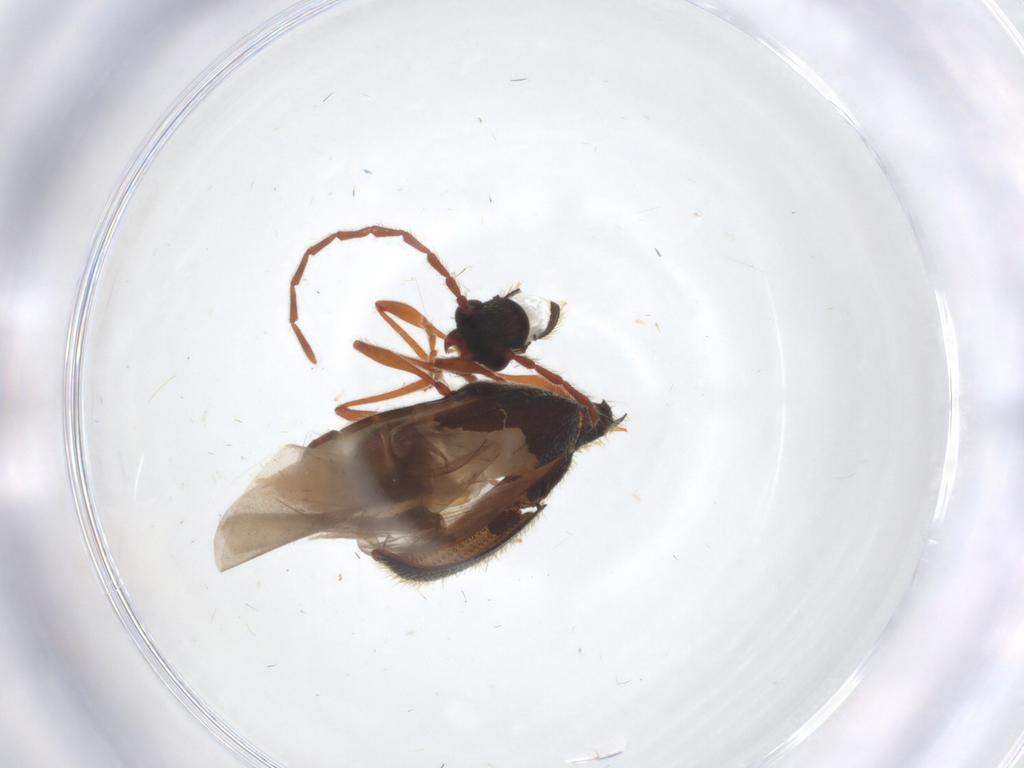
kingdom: Animalia
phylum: Arthropoda
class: Insecta
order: Coleoptera
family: Ptinidae
